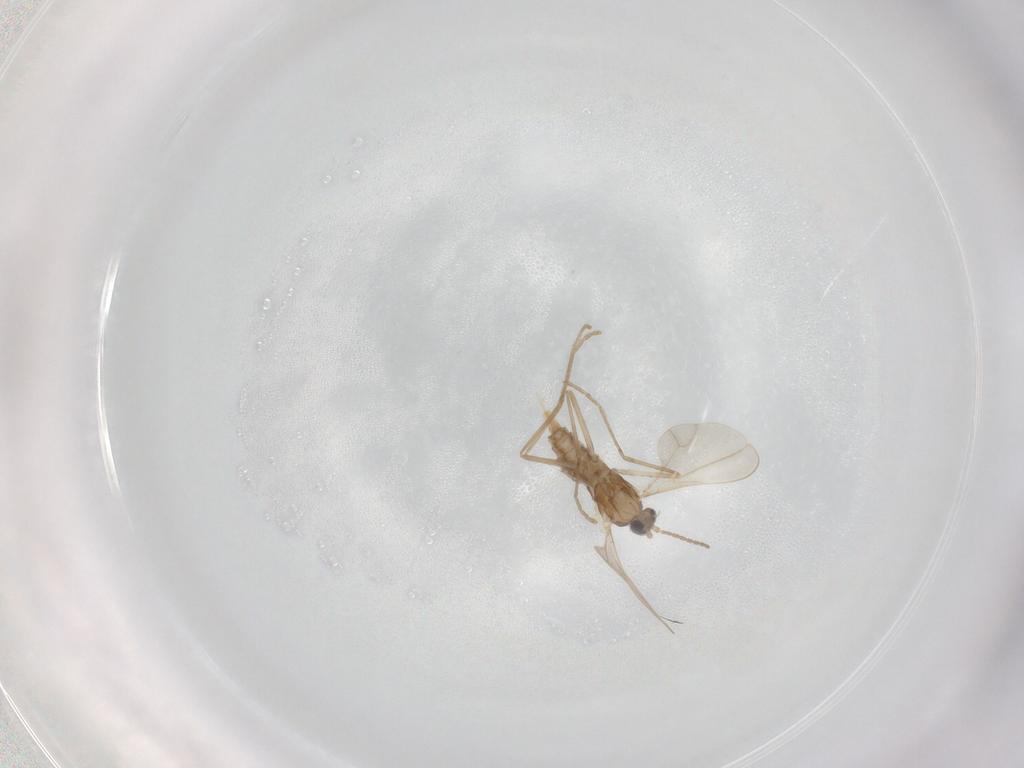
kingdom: Animalia
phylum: Arthropoda
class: Insecta
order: Diptera
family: Cecidomyiidae
